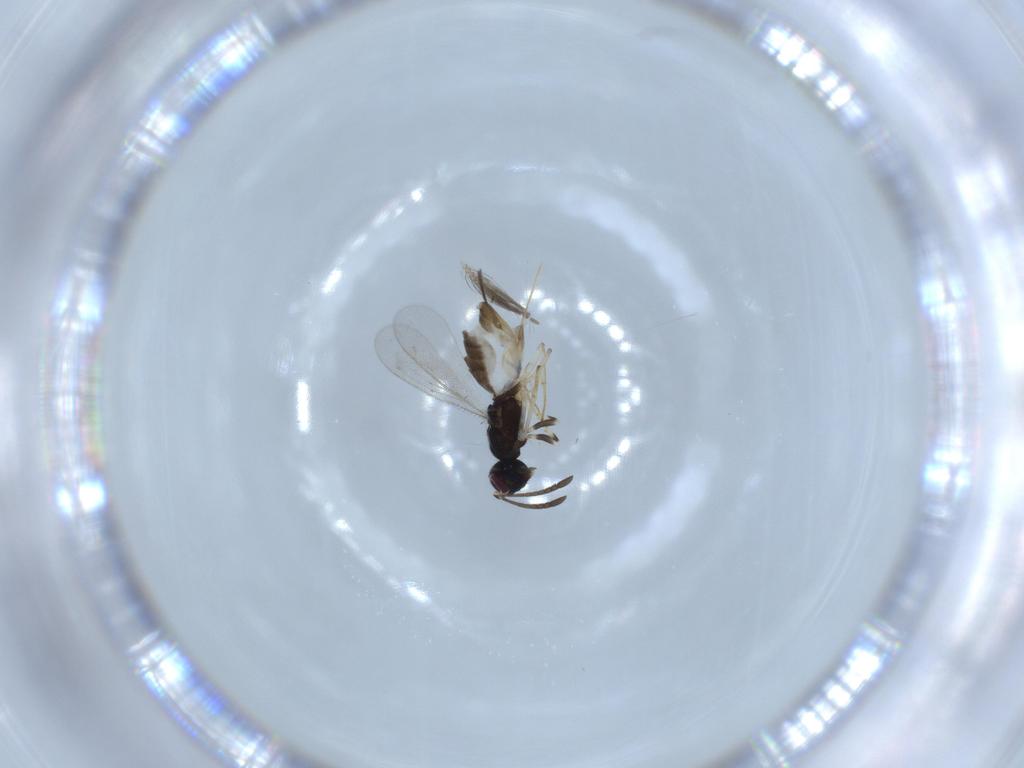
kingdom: Animalia
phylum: Arthropoda
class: Insecta
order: Hymenoptera
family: Eupelmidae
